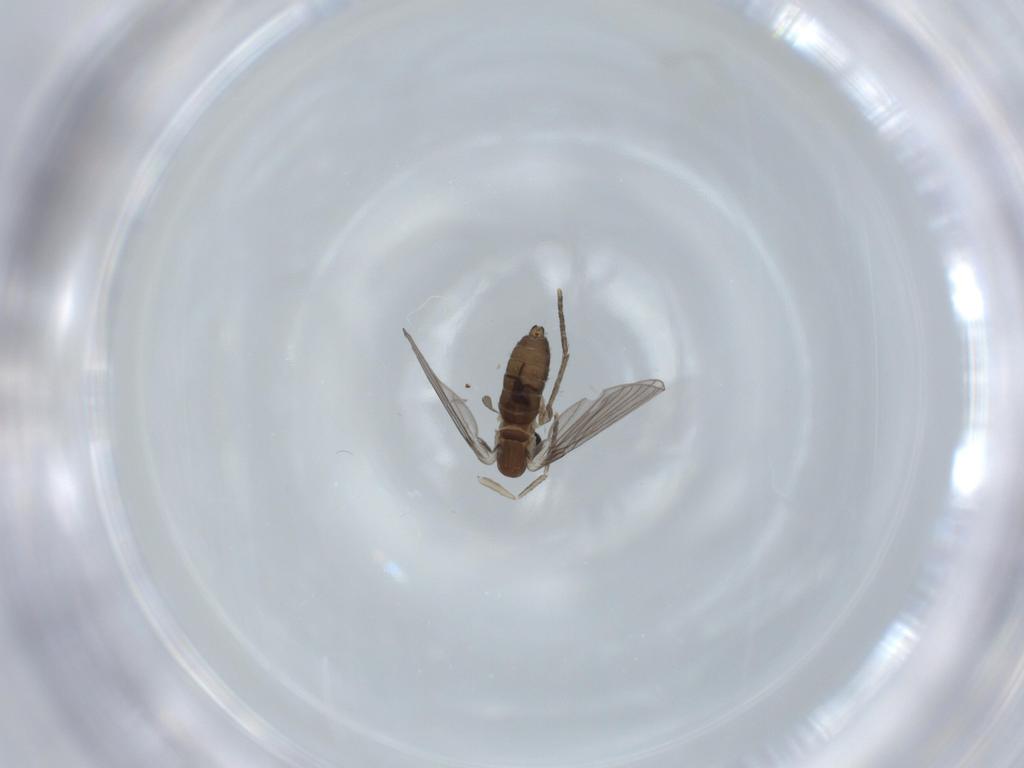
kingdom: Animalia
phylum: Arthropoda
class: Insecta
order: Diptera
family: Psychodidae
